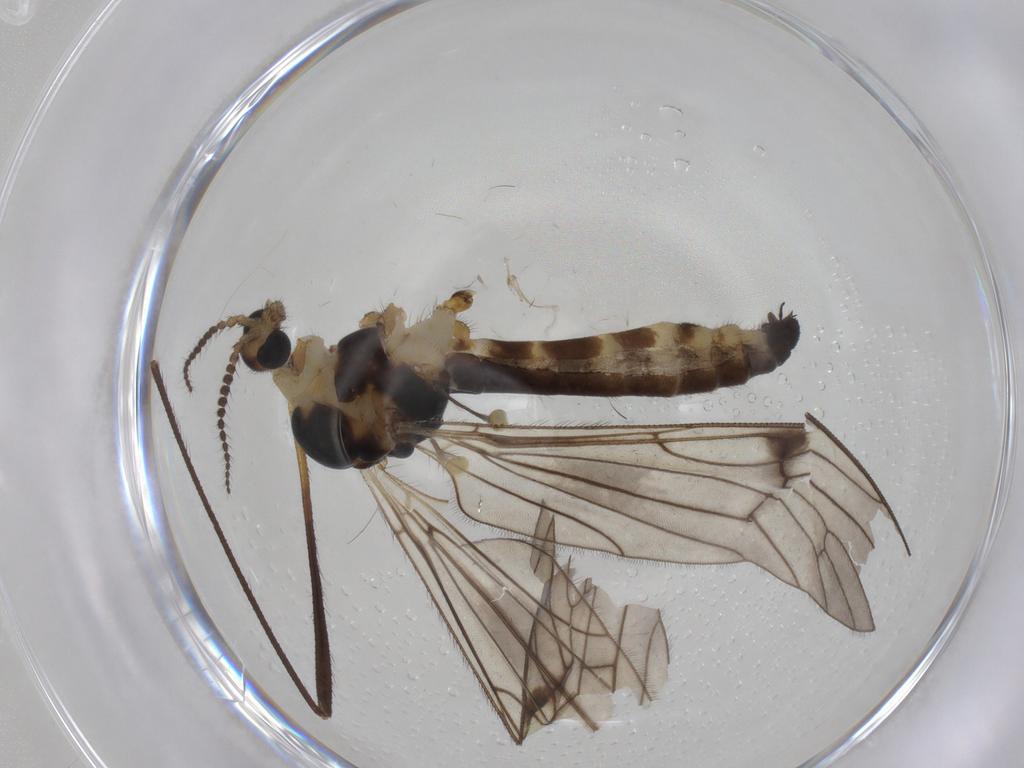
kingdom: Animalia
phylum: Arthropoda
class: Insecta
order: Diptera
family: Limoniidae
